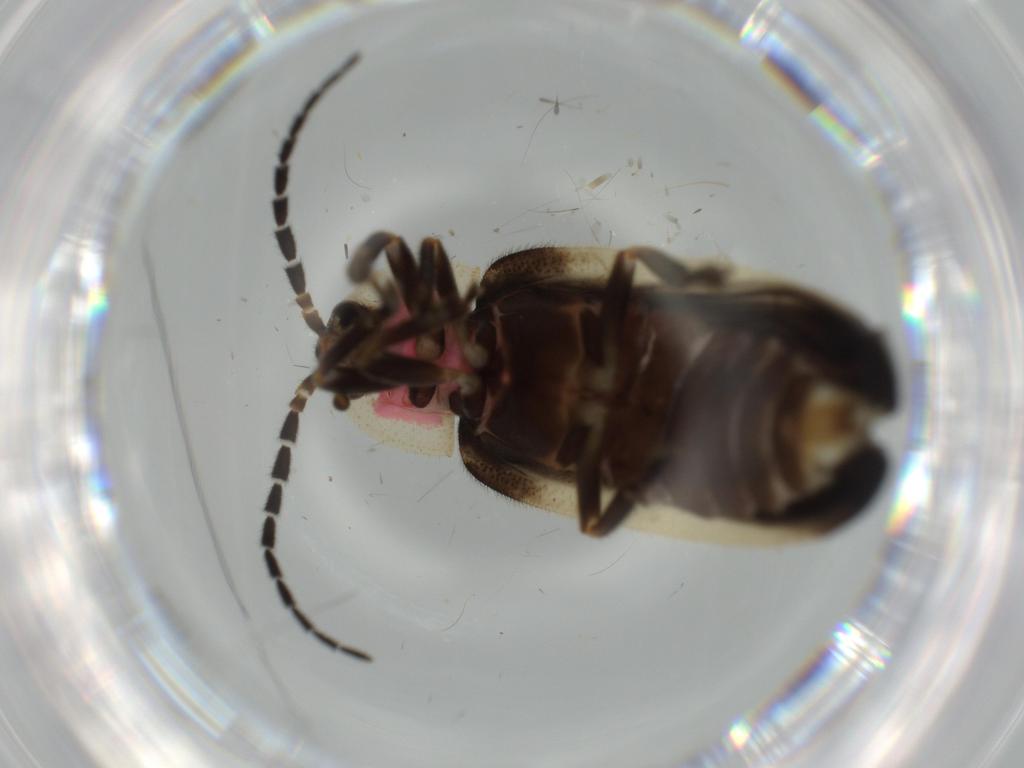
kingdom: Animalia
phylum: Arthropoda
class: Insecta
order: Coleoptera
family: Lampyridae
